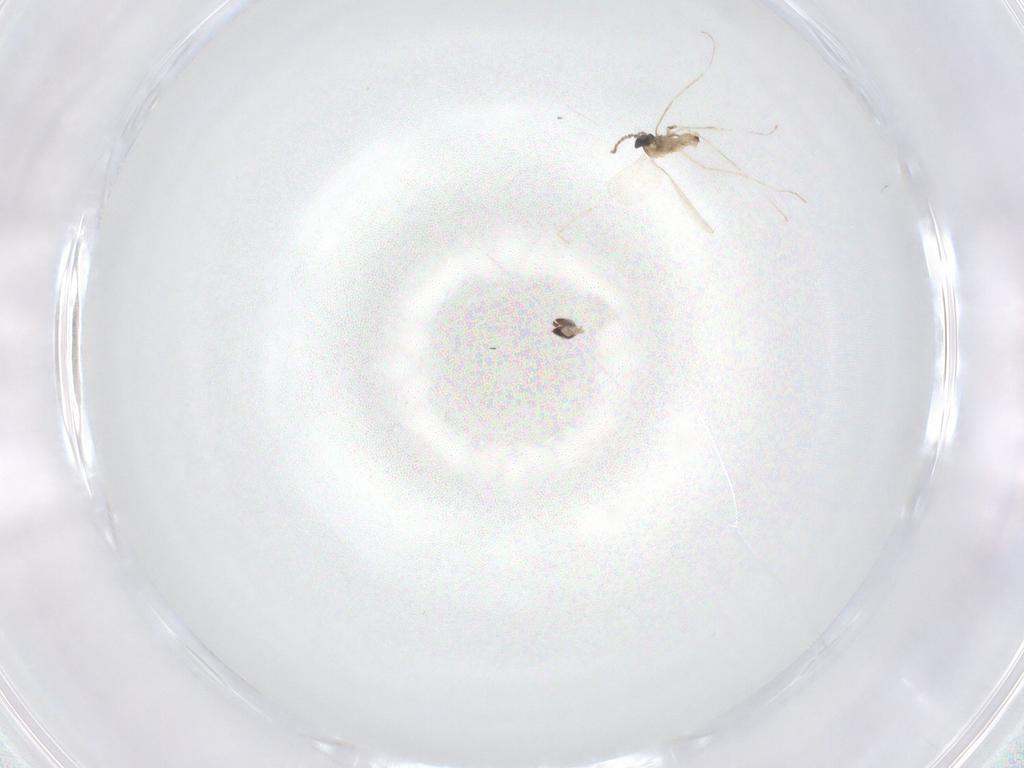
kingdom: Animalia
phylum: Arthropoda
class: Insecta
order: Diptera
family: Cecidomyiidae
